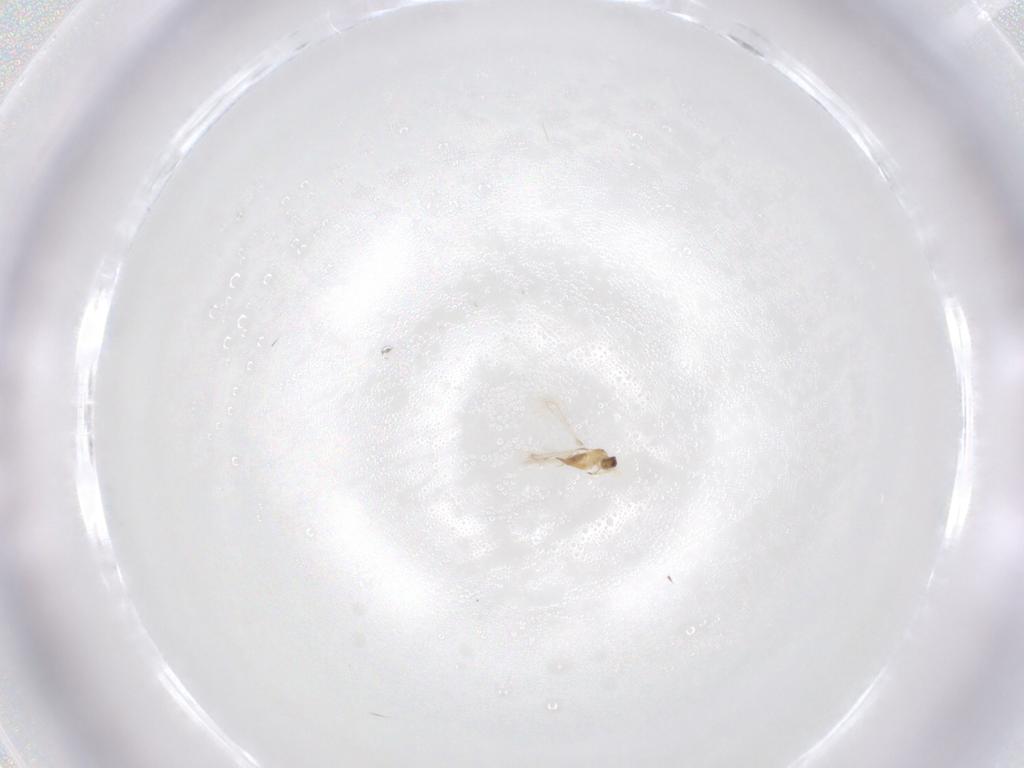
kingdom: Animalia
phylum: Arthropoda
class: Insecta
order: Hymenoptera
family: Mymaridae
